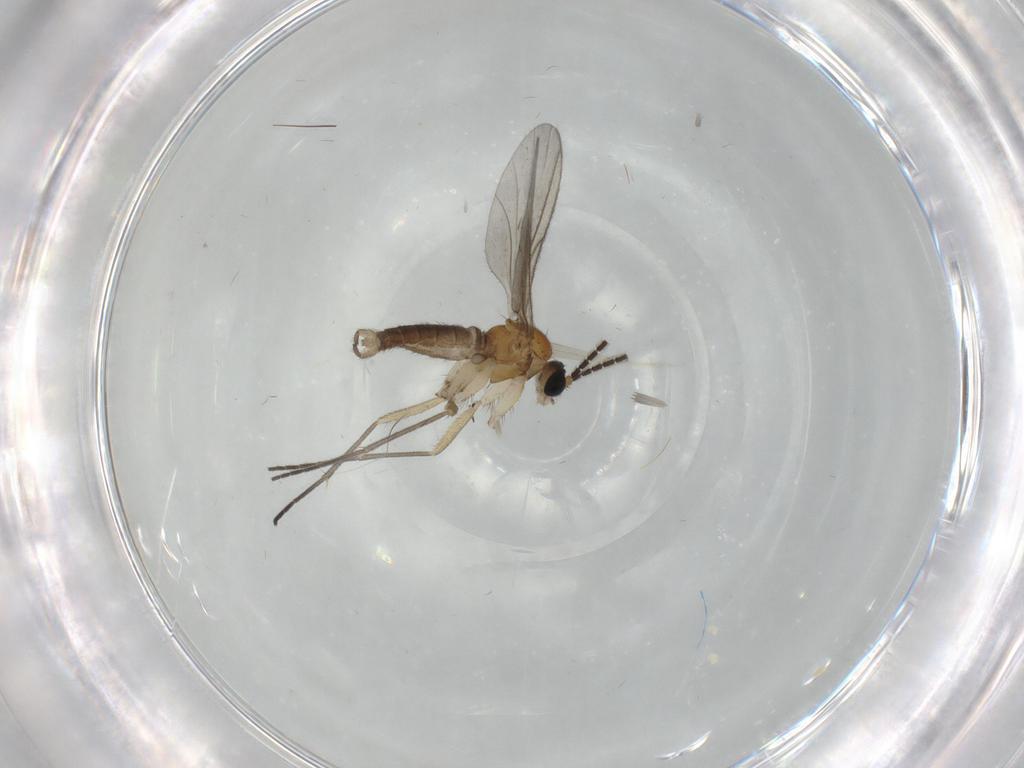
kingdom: Animalia
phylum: Arthropoda
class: Insecta
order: Diptera
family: Sciaridae
